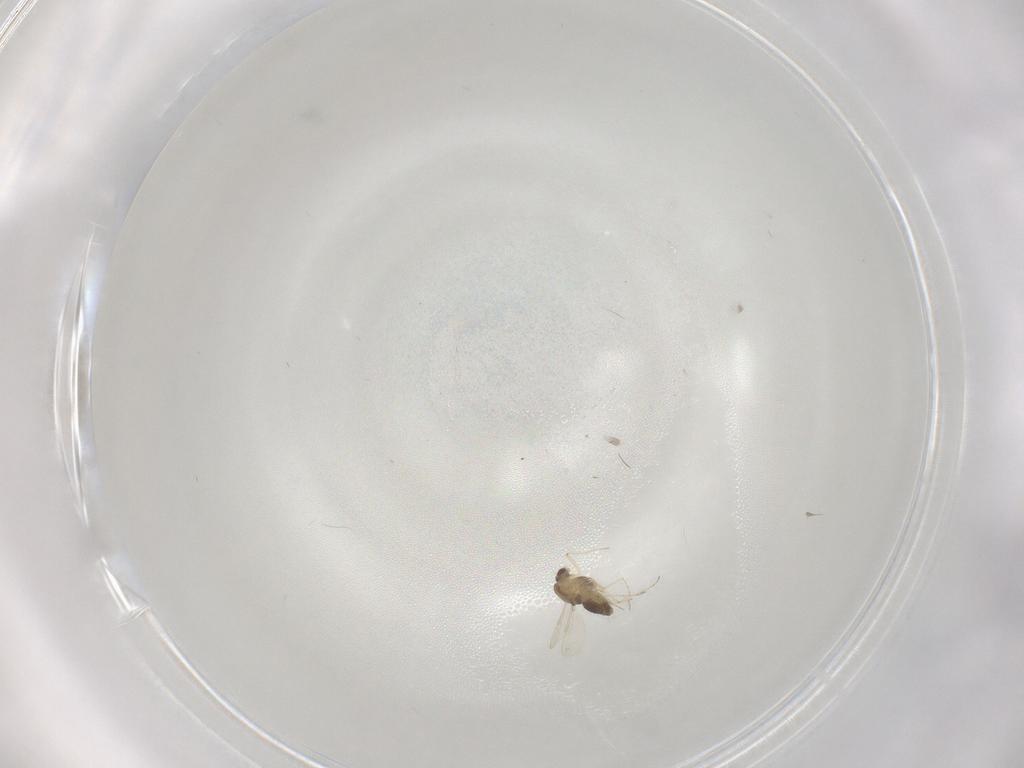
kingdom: Animalia
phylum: Arthropoda
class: Insecta
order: Diptera
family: Chironomidae
